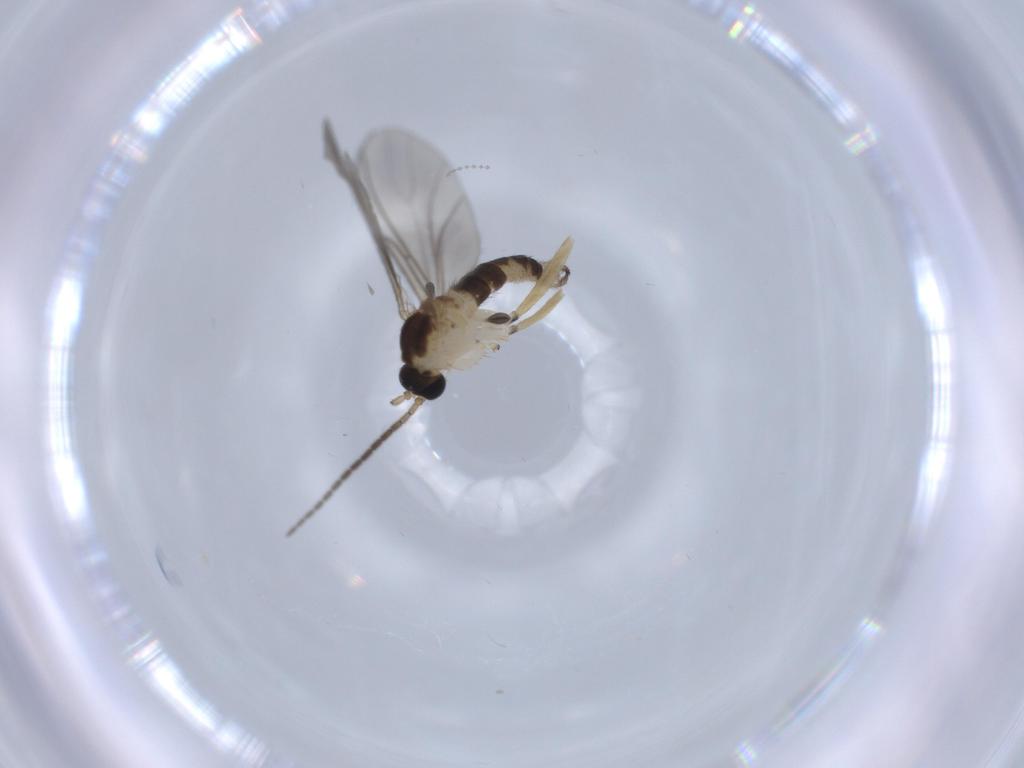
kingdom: Animalia
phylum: Arthropoda
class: Insecta
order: Diptera
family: Sciaridae
